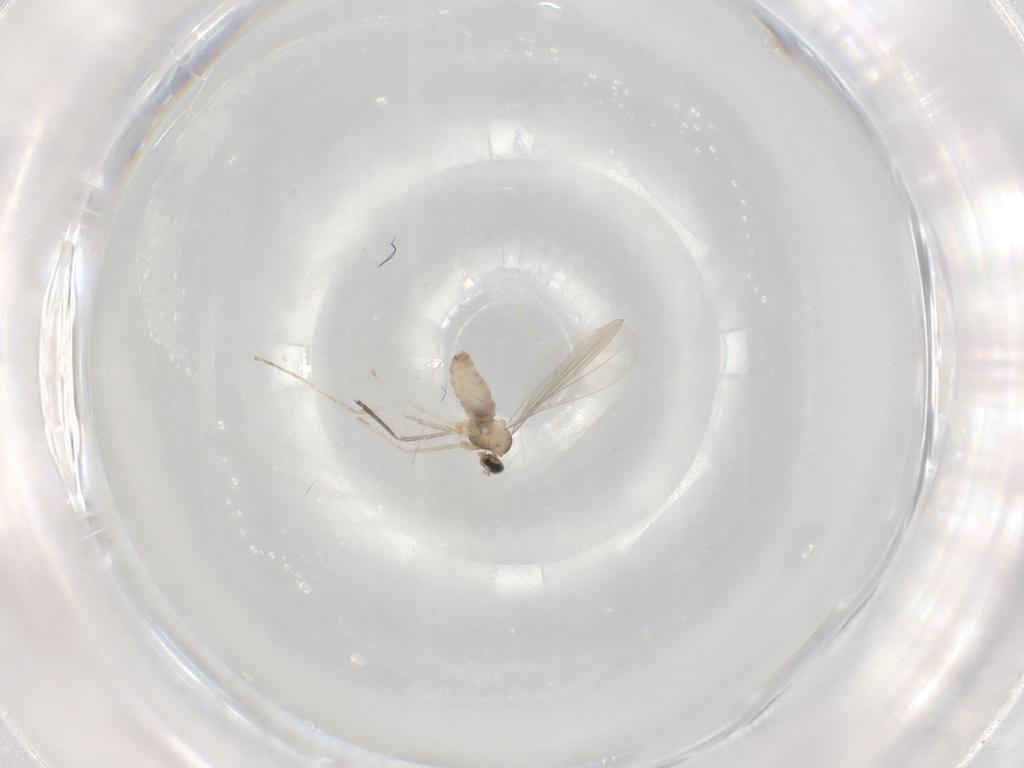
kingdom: Animalia
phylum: Arthropoda
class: Insecta
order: Diptera
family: Cecidomyiidae
